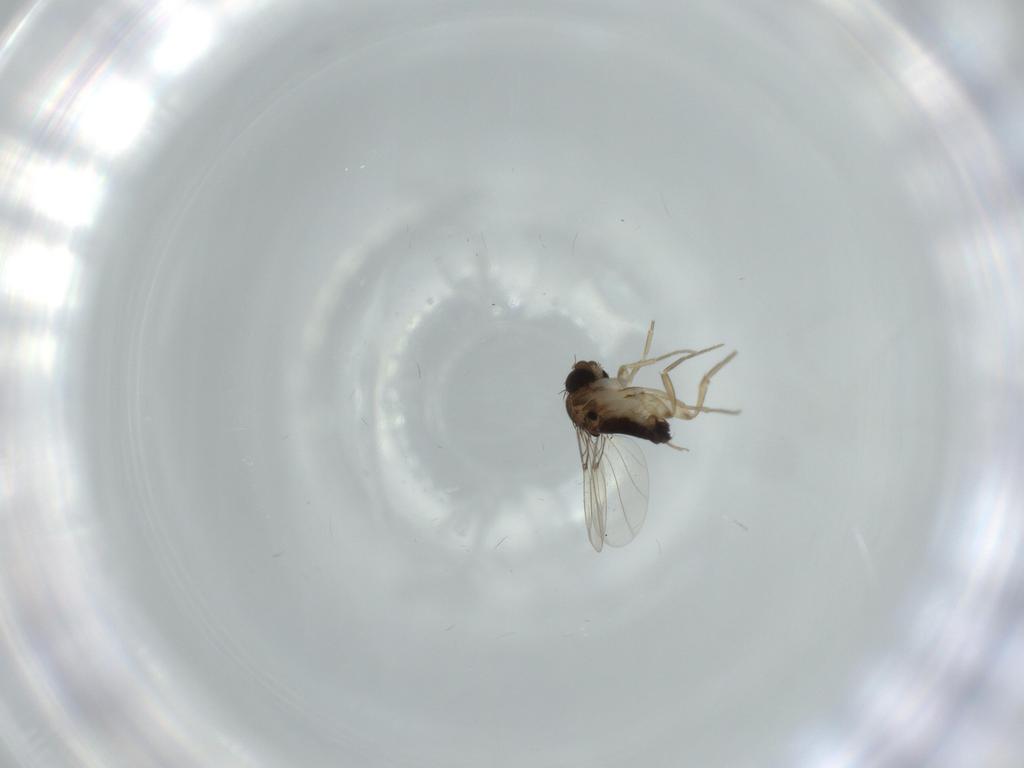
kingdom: Animalia
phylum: Arthropoda
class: Insecta
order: Diptera
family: Phoridae
